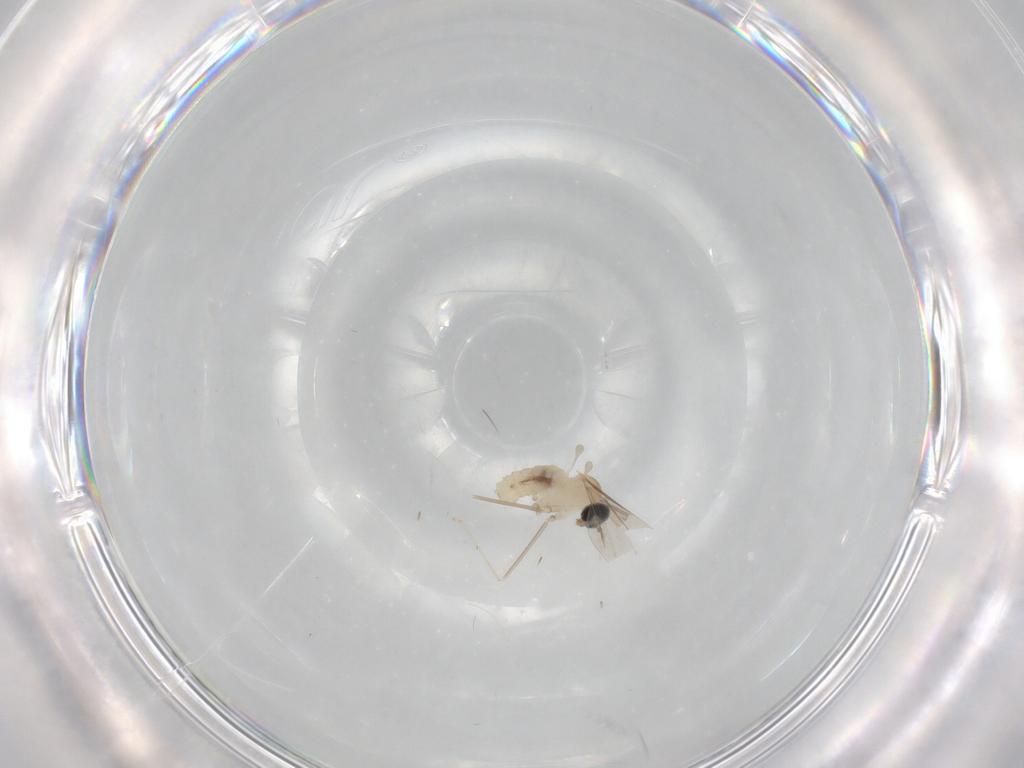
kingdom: Animalia
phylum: Arthropoda
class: Insecta
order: Diptera
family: Cecidomyiidae
